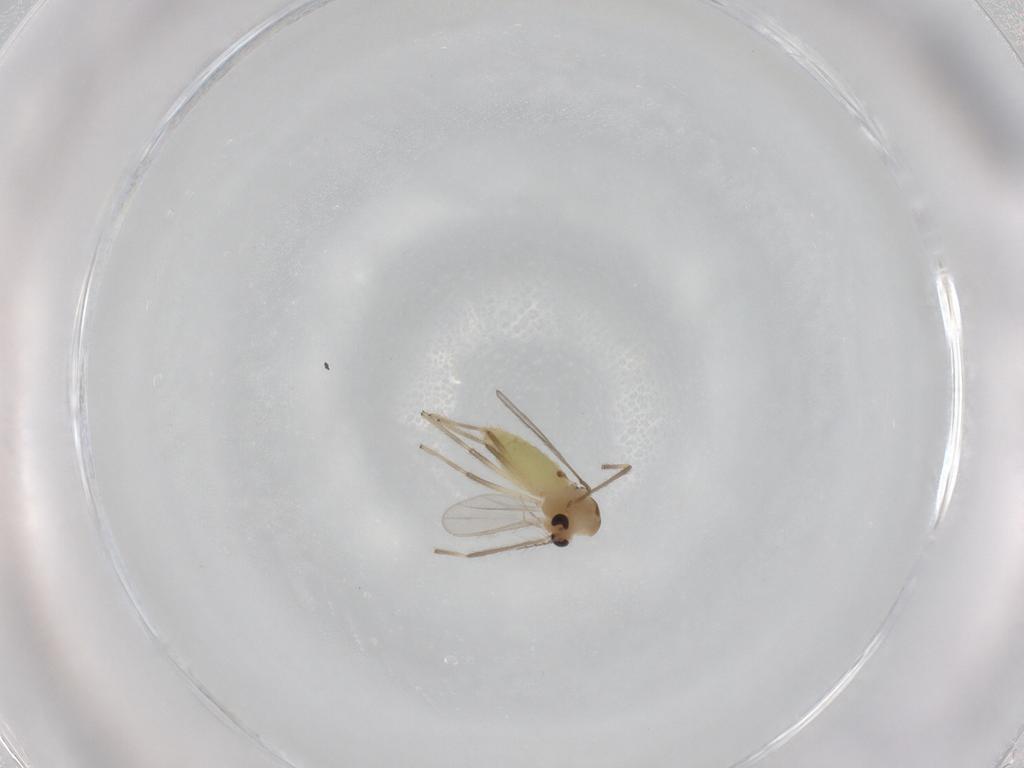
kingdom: Animalia
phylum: Arthropoda
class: Insecta
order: Diptera
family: Chironomidae
